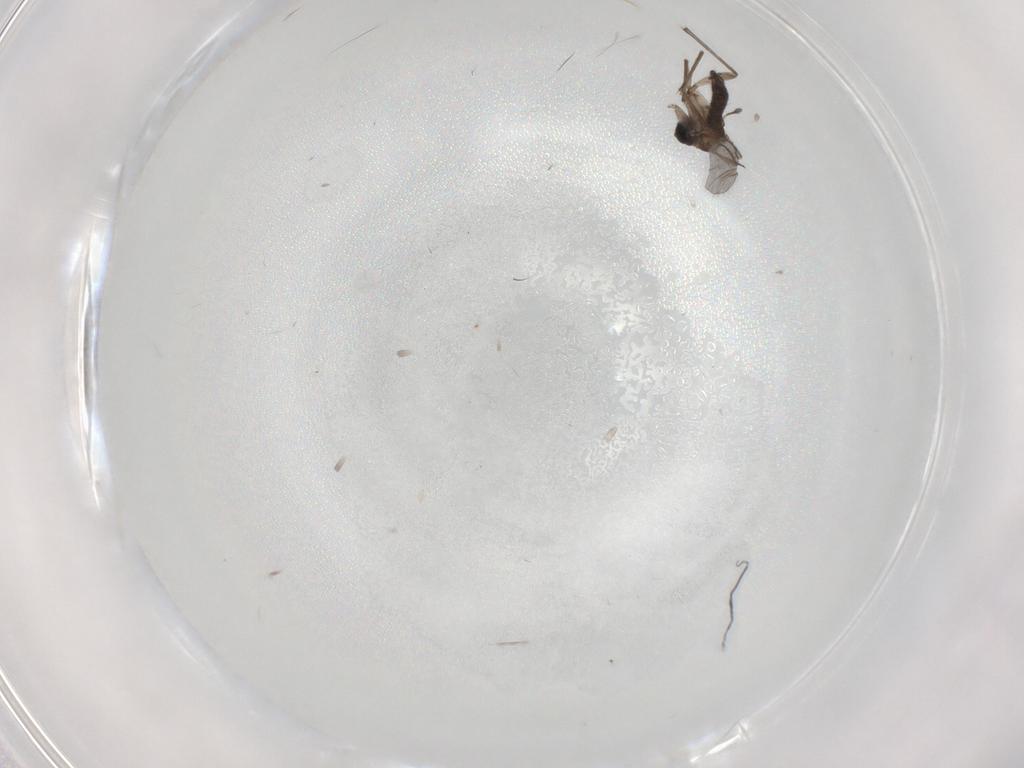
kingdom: Animalia
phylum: Arthropoda
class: Insecta
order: Diptera
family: Sciaridae
